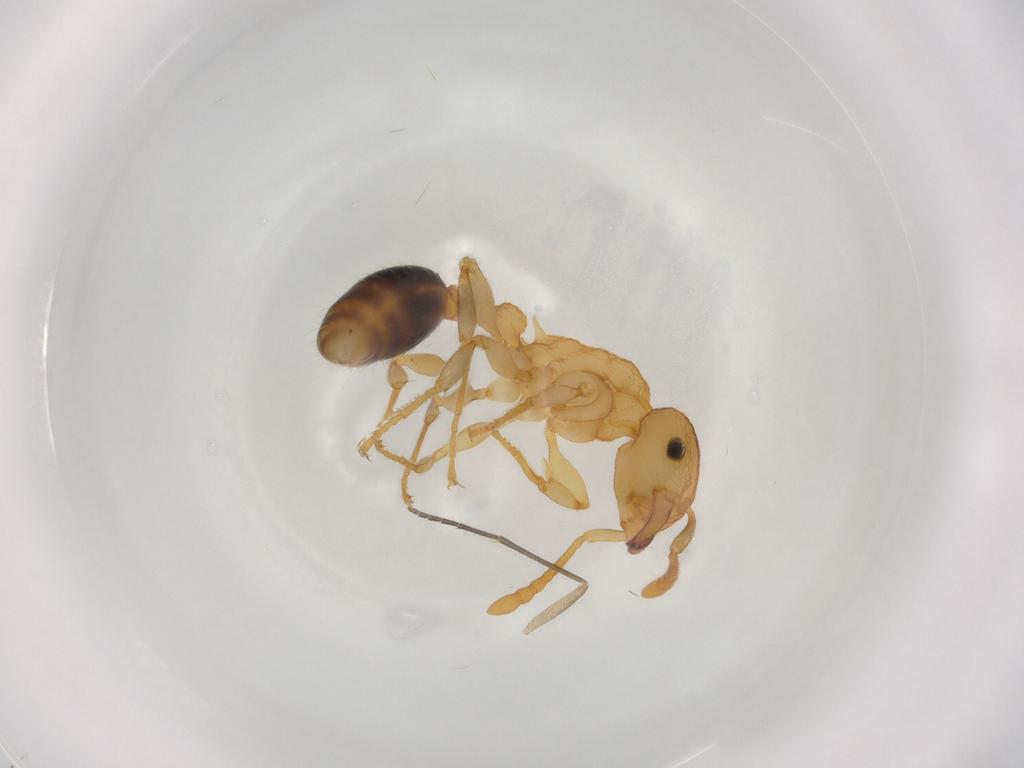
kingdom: Animalia
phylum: Arthropoda
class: Insecta
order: Hymenoptera
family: Formicidae
